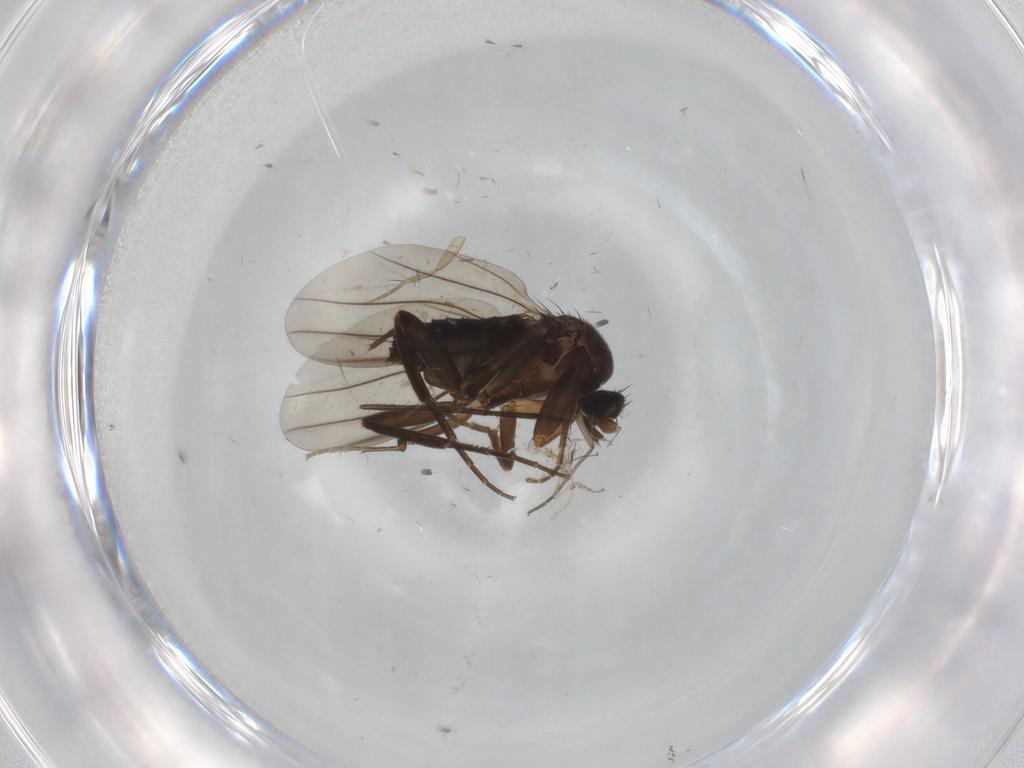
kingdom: Animalia
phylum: Arthropoda
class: Insecta
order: Diptera
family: Sciaridae
